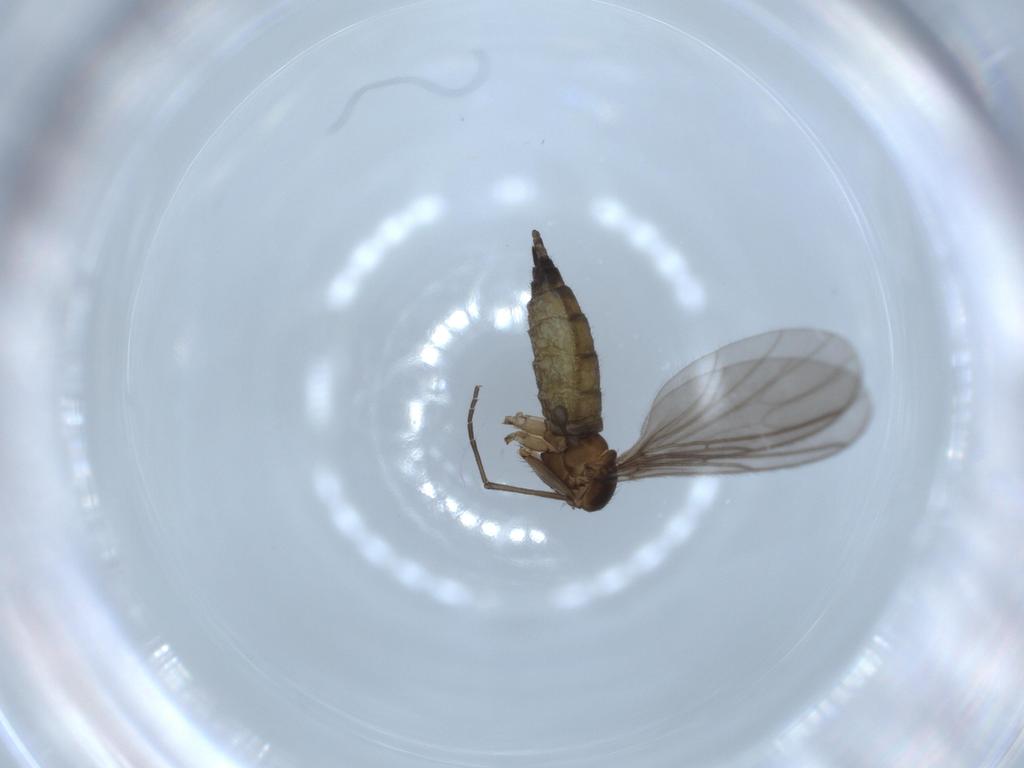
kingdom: Animalia
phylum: Arthropoda
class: Insecta
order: Diptera
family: Sciaridae
